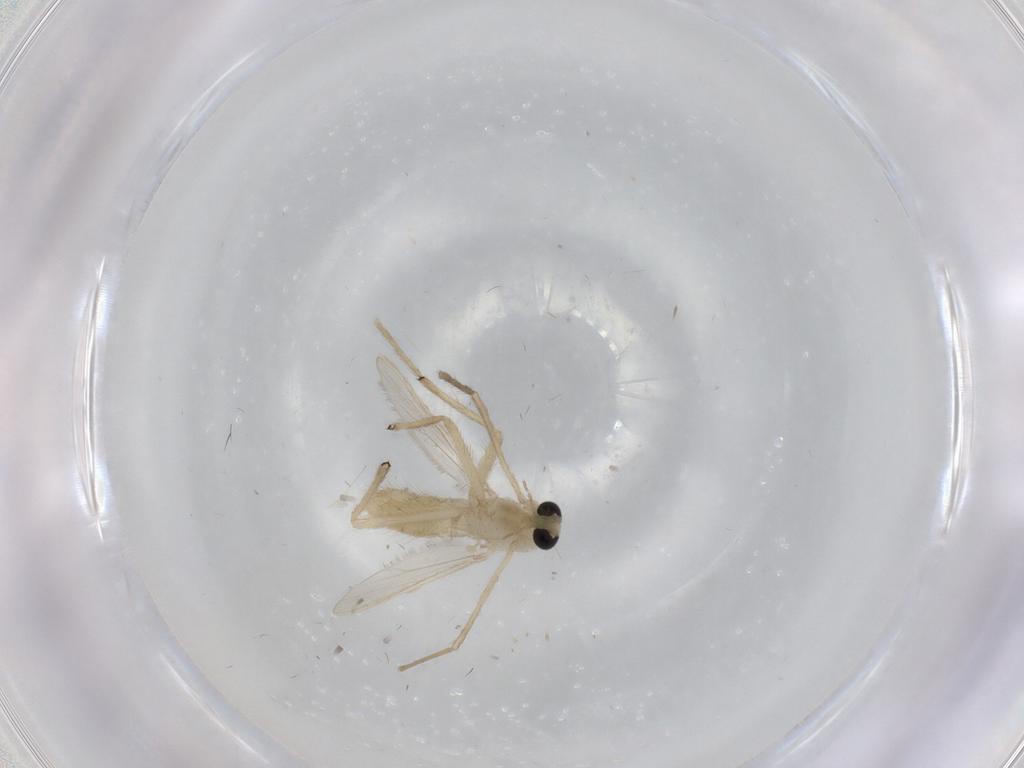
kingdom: Animalia
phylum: Arthropoda
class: Insecta
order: Diptera
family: Chironomidae
